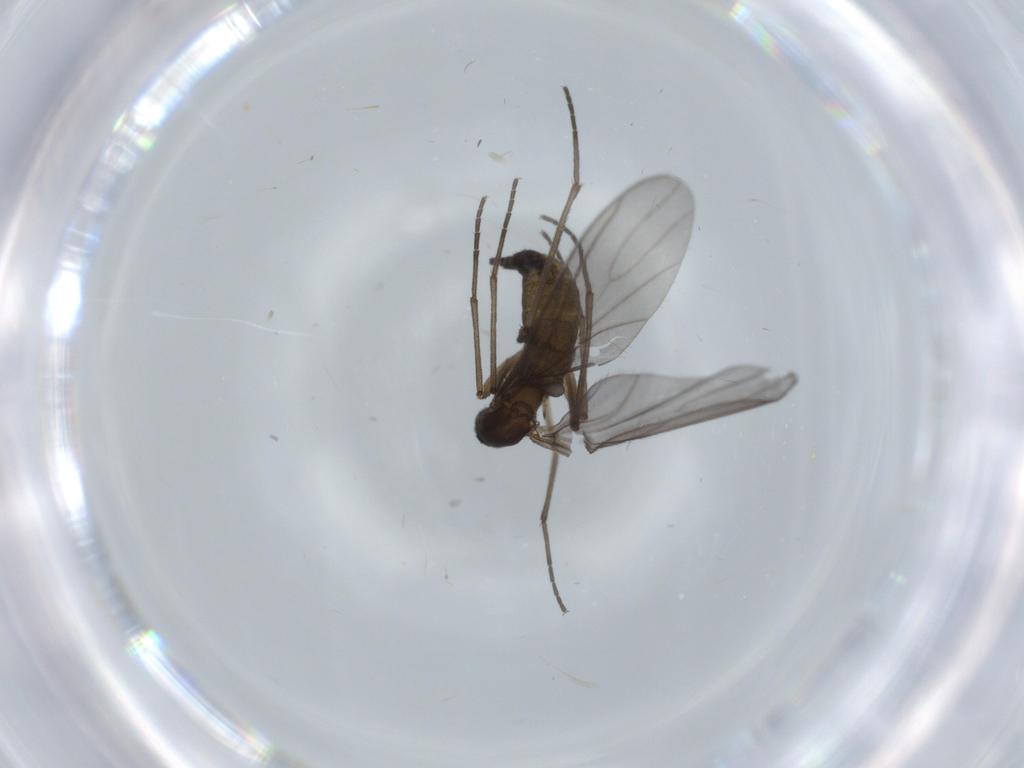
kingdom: Animalia
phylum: Arthropoda
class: Insecta
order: Diptera
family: Sciaridae
